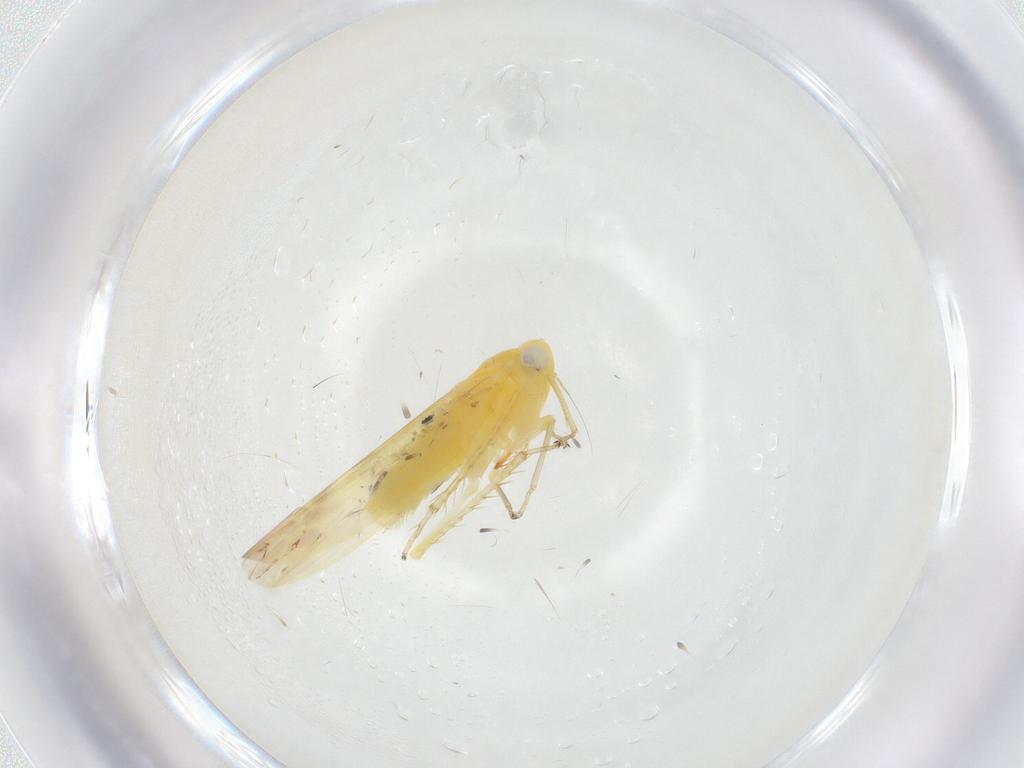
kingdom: Animalia
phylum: Arthropoda
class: Insecta
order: Hemiptera
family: Cicadellidae
